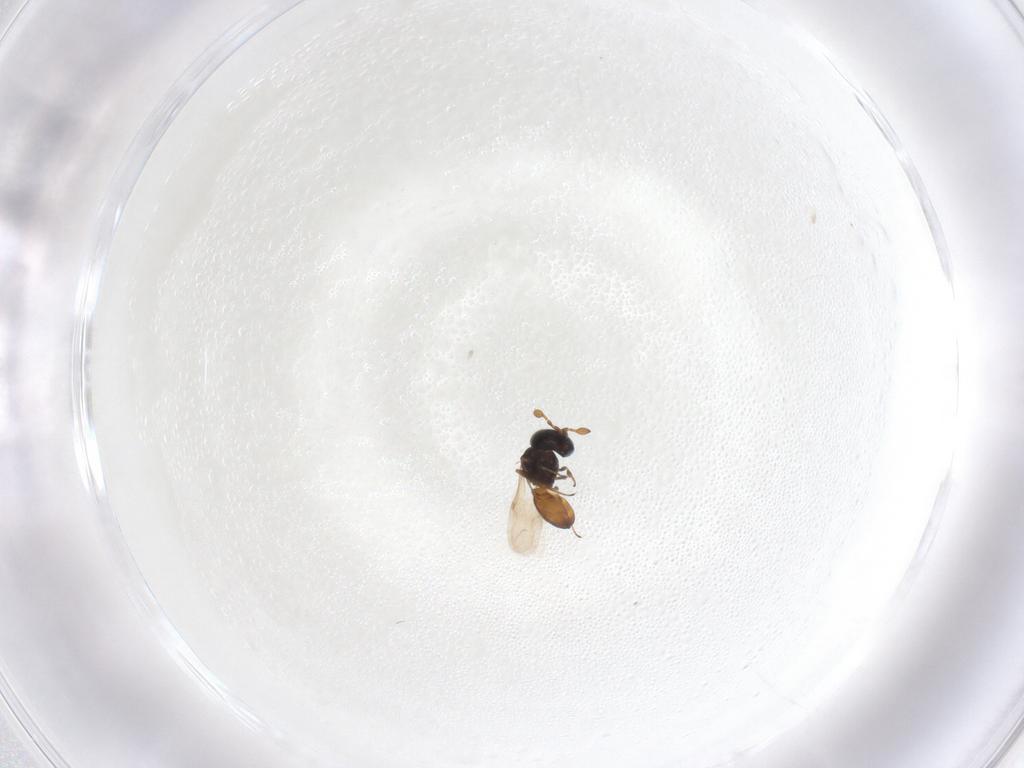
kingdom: Animalia
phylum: Arthropoda
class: Insecta
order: Hymenoptera
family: Scelionidae
